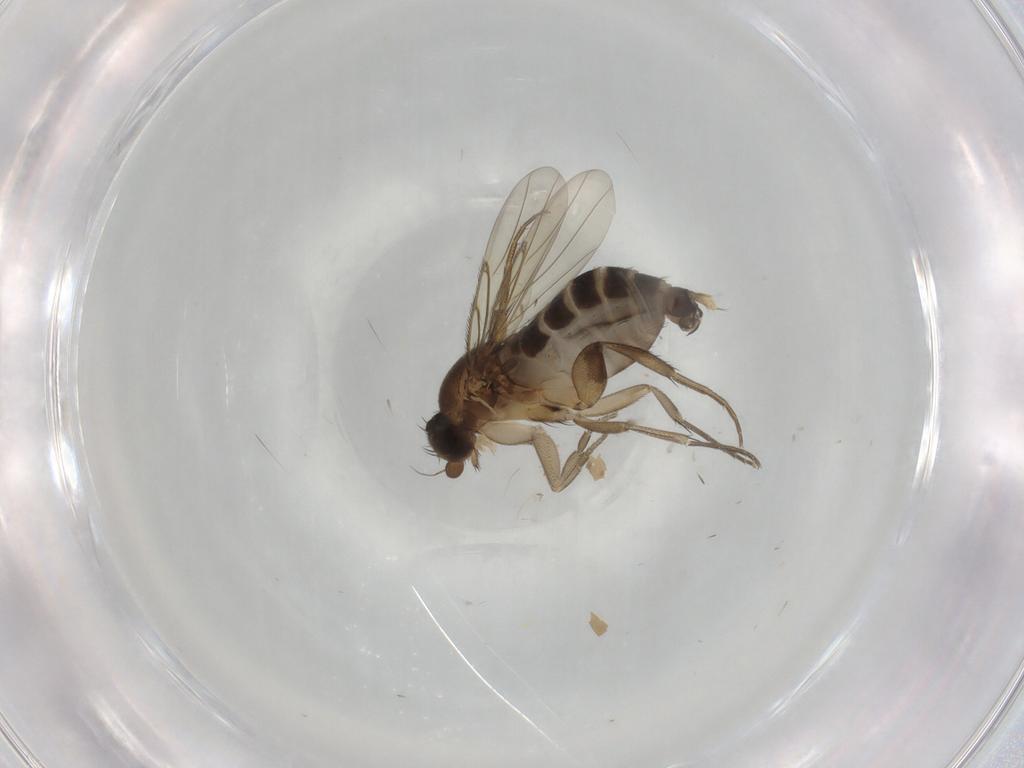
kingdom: Animalia
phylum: Arthropoda
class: Insecta
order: Diptera
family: Phoridae
